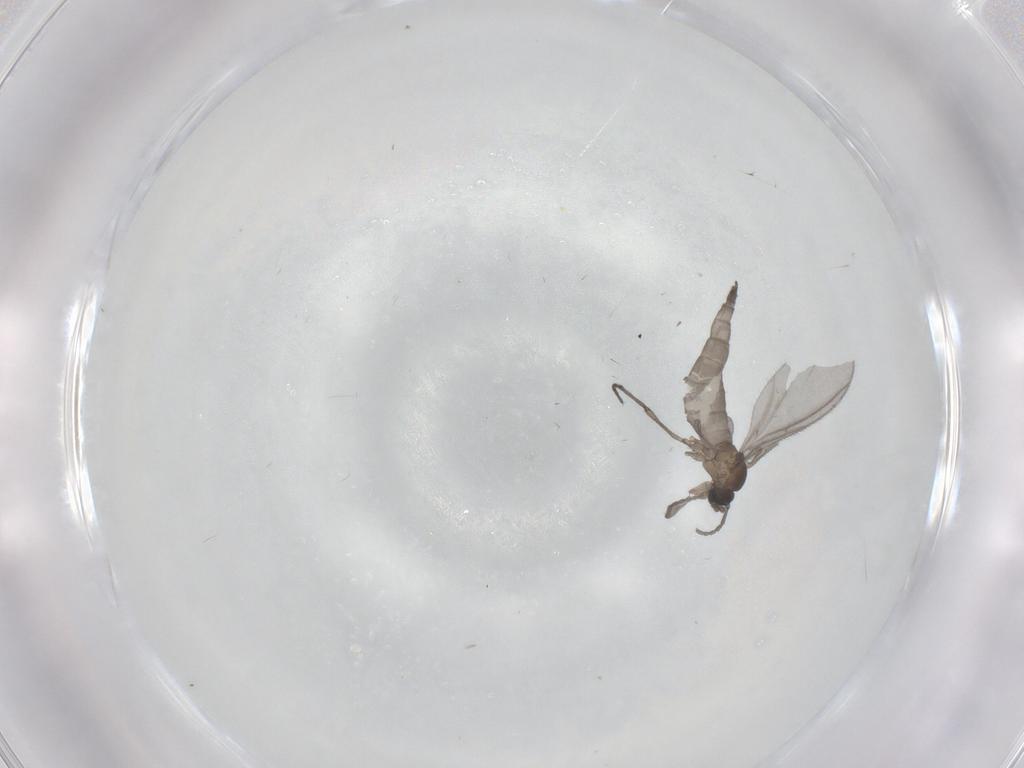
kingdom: Animalia
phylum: Arthropoda
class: Insecta
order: Diptera
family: Sciaridae
